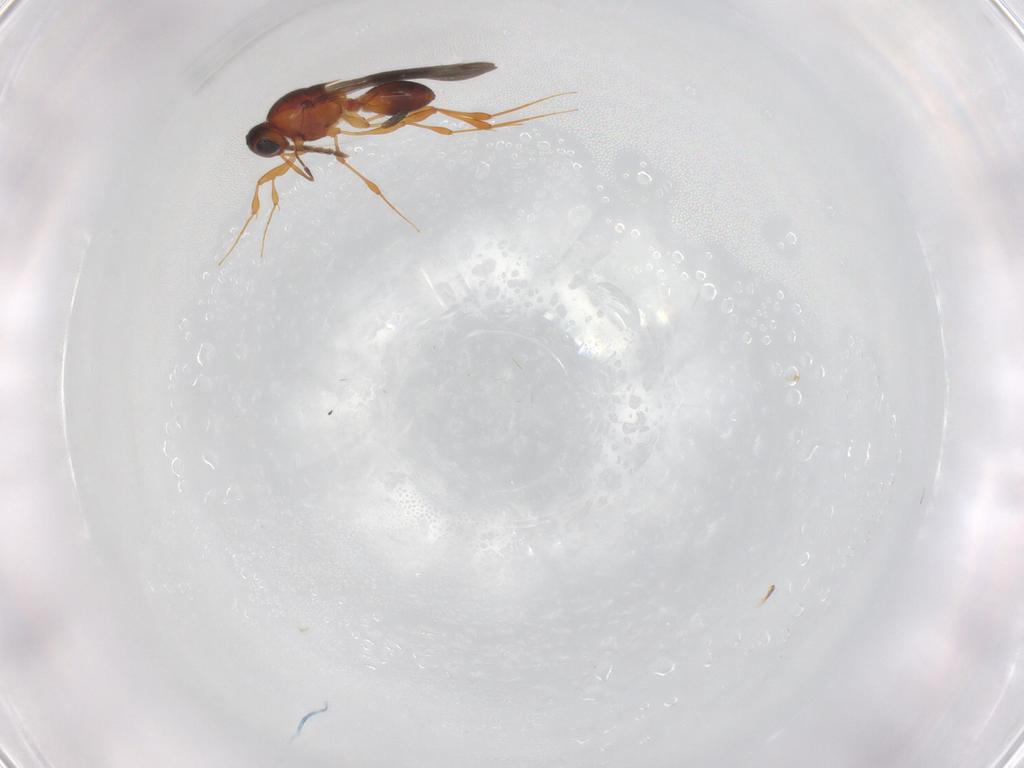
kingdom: Animalia
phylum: Arthropoda
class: Insecta
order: Hymenoptera
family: Platygastridae
